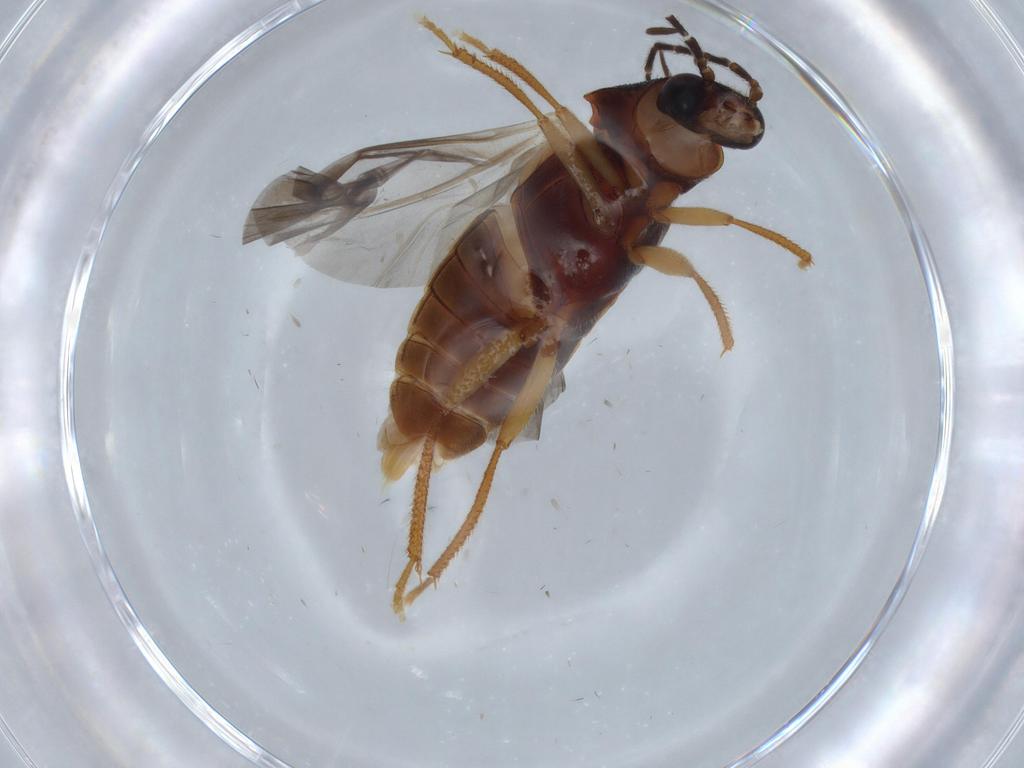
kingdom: Animalia
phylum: Arthropoda
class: Insecta
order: Coleoptera
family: Ptilodactylidae
